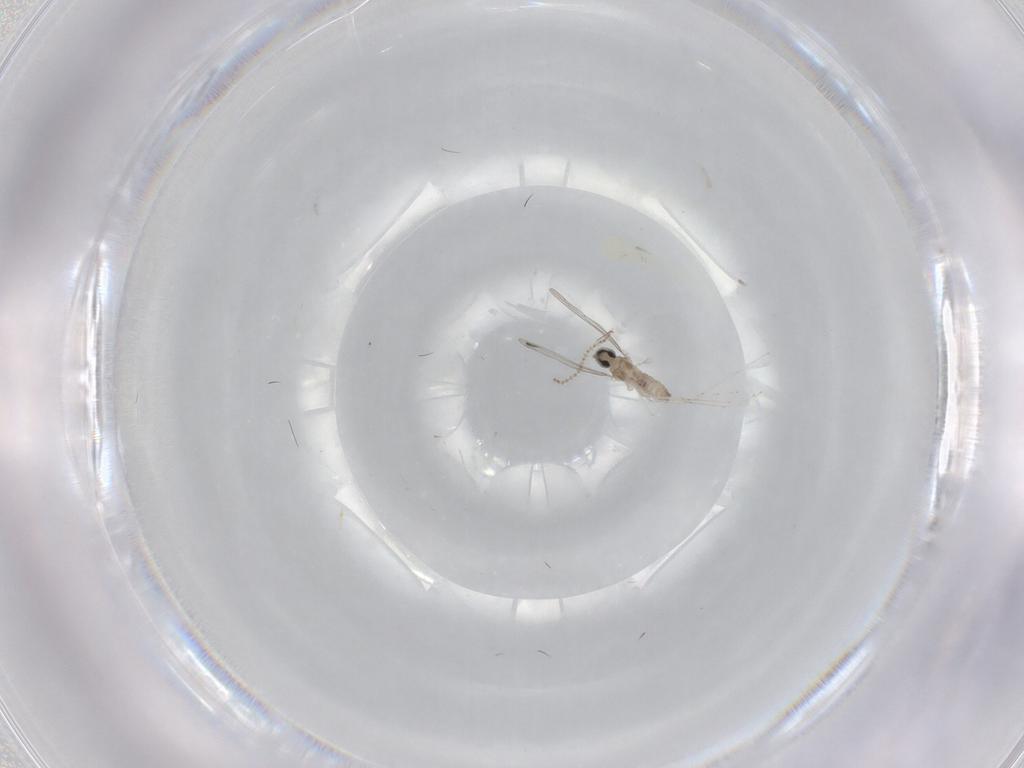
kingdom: Animalia
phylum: Arthropoda
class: Insecta
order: Diptera
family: Cecidomyiidae
